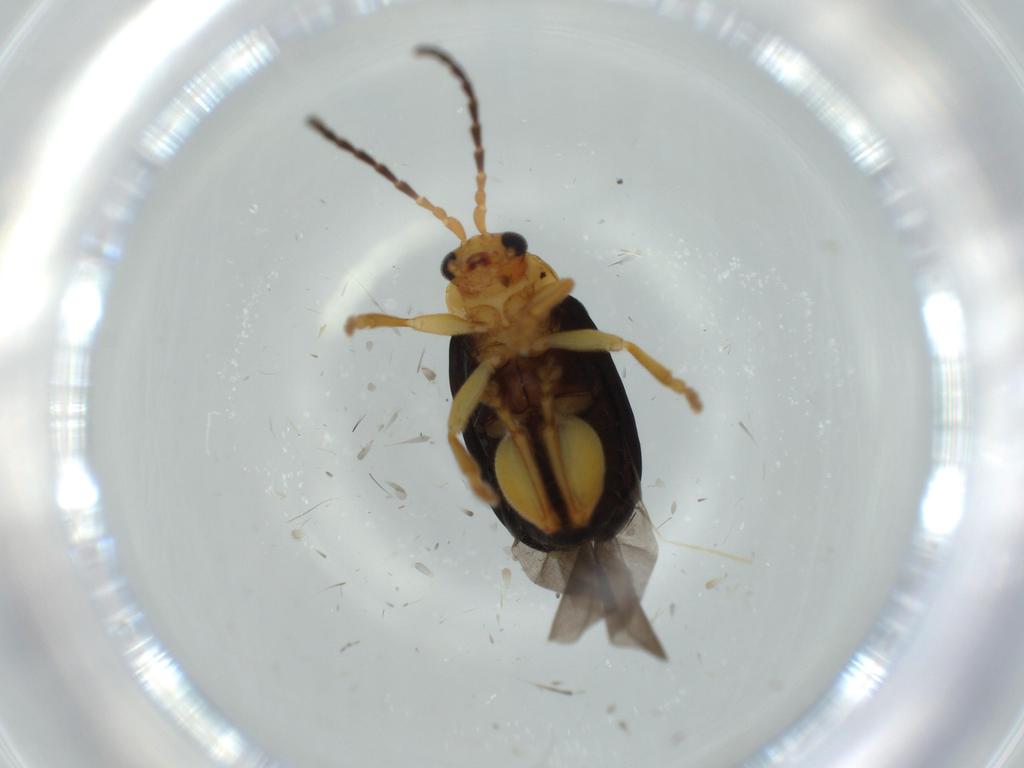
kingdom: Animalia
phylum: Arthropoda
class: Insecta
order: Coleoptera
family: Chrysomelidae
